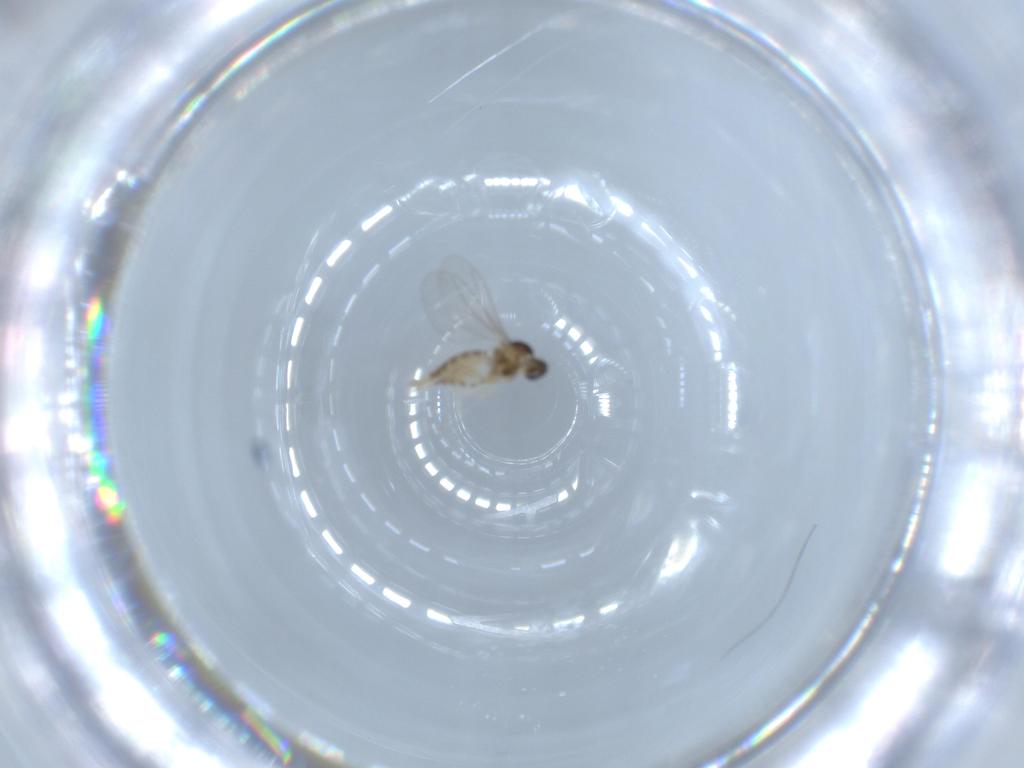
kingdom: Animalia
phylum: Arthropoda
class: Insecta
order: Diptera
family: Cecidomyiidae
